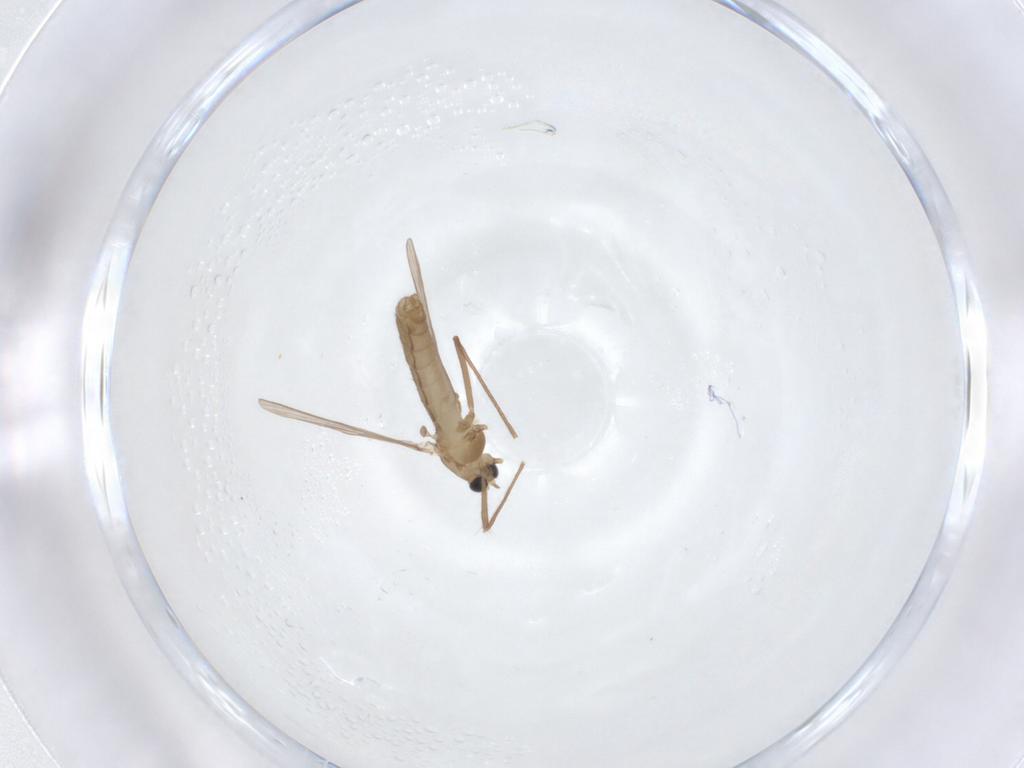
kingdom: Animalia
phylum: Arthropoda
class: Insecta
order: Diptera
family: Chironomidae
